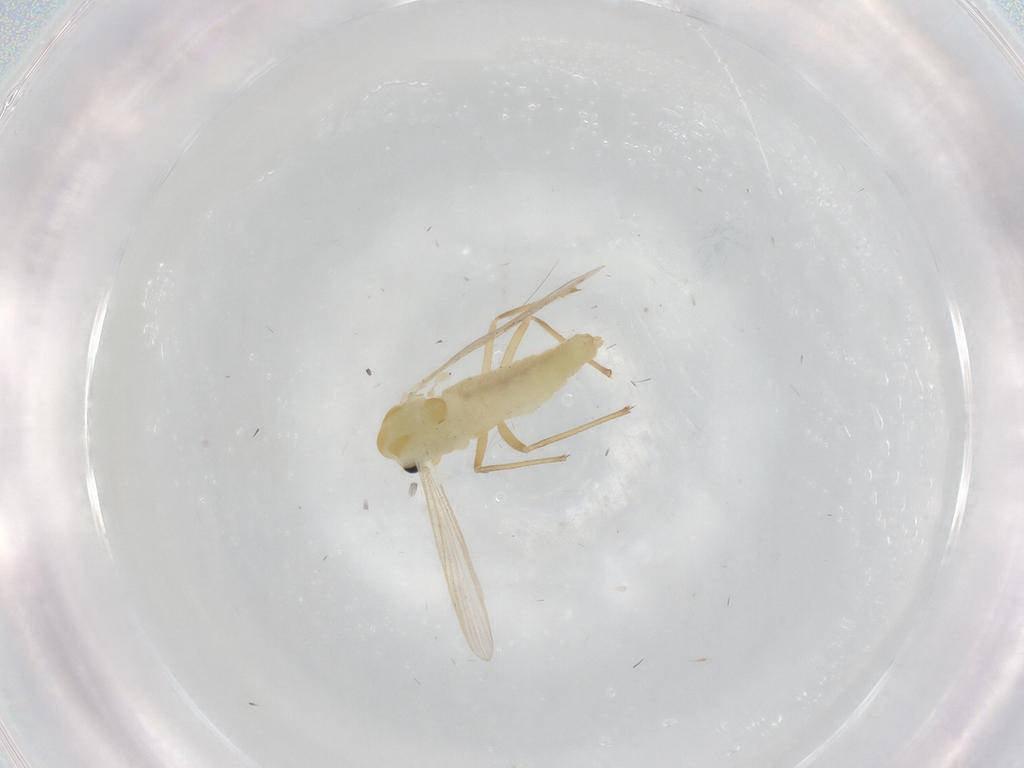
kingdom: Animalia
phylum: Arthropoda
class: Insecta
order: Diptera
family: Chironomidae
